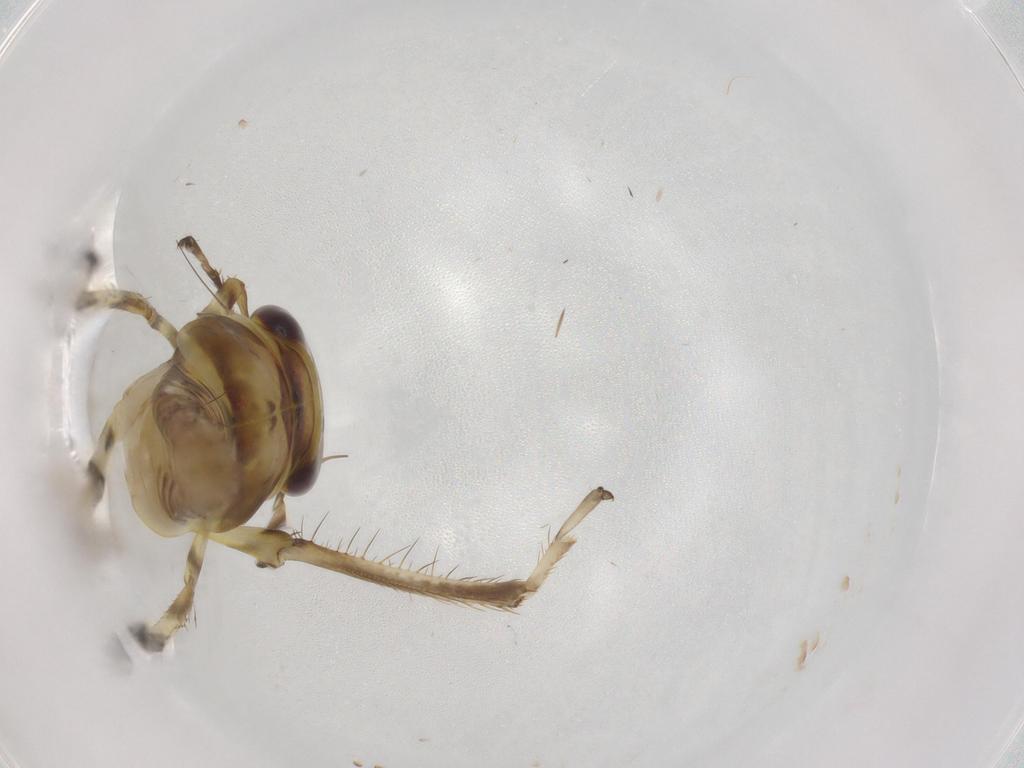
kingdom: Animalia
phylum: Arthropoda
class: Insecta
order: Hemiptera
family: Cicadellidae
